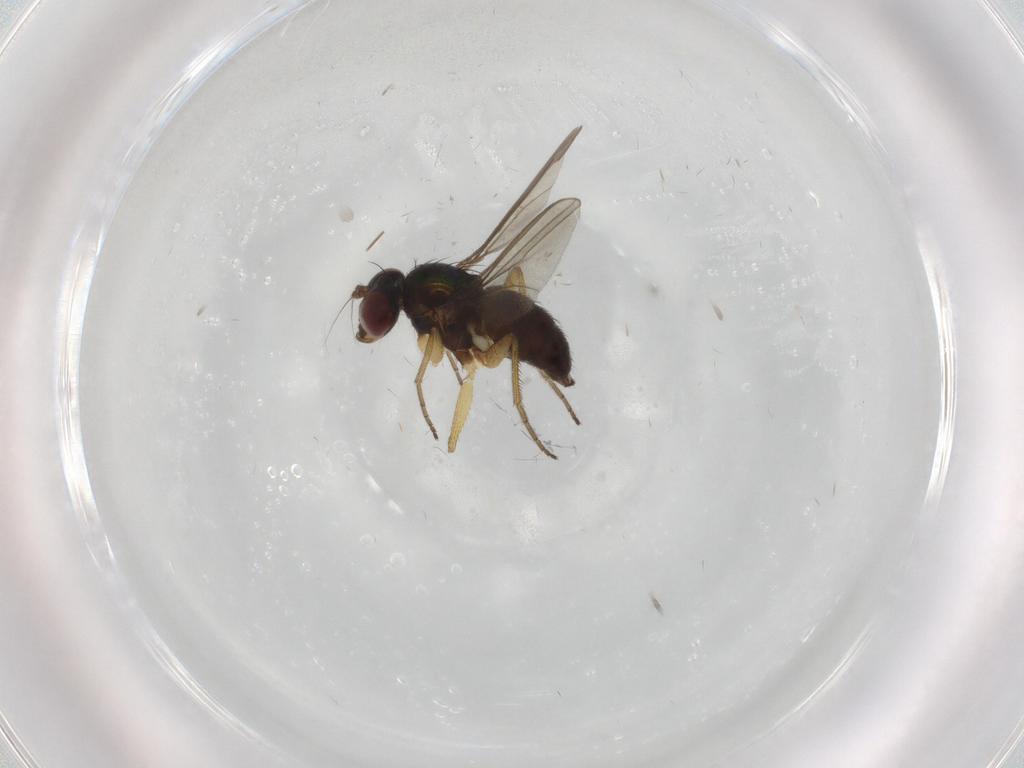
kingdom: Animalia
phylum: Arthropoda
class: Insecta
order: Diptera
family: Dolichopodidae
